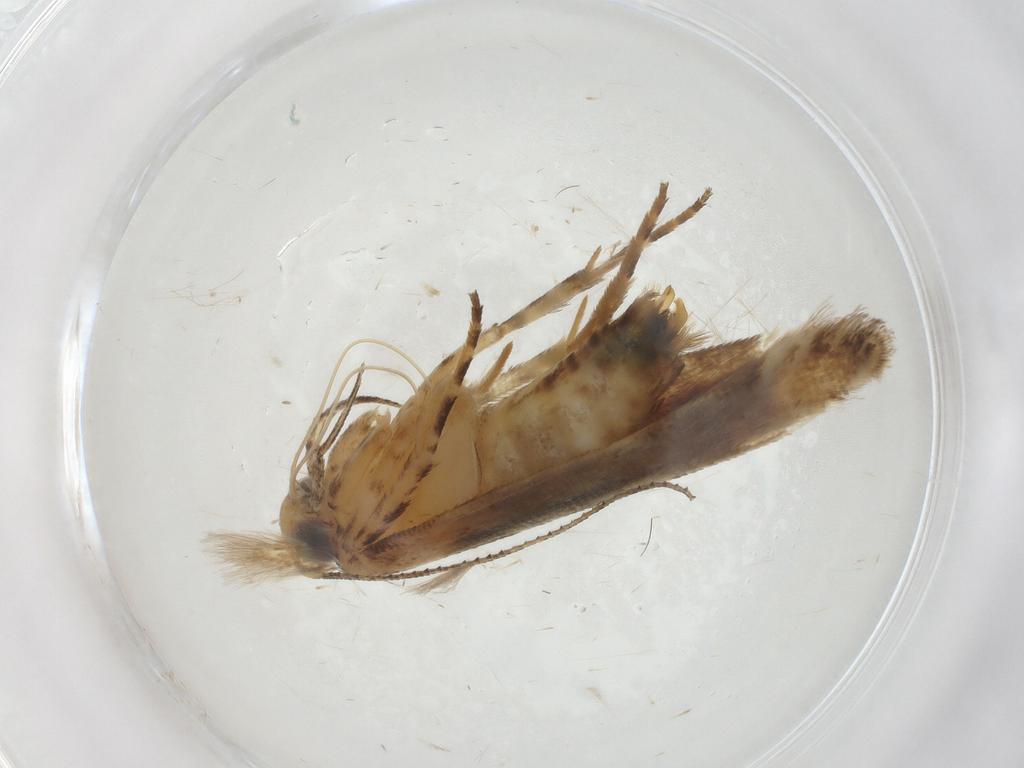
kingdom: Animalia
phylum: Arthropoda
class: Insecta
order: Lepidoptera
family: Gelechiidae
